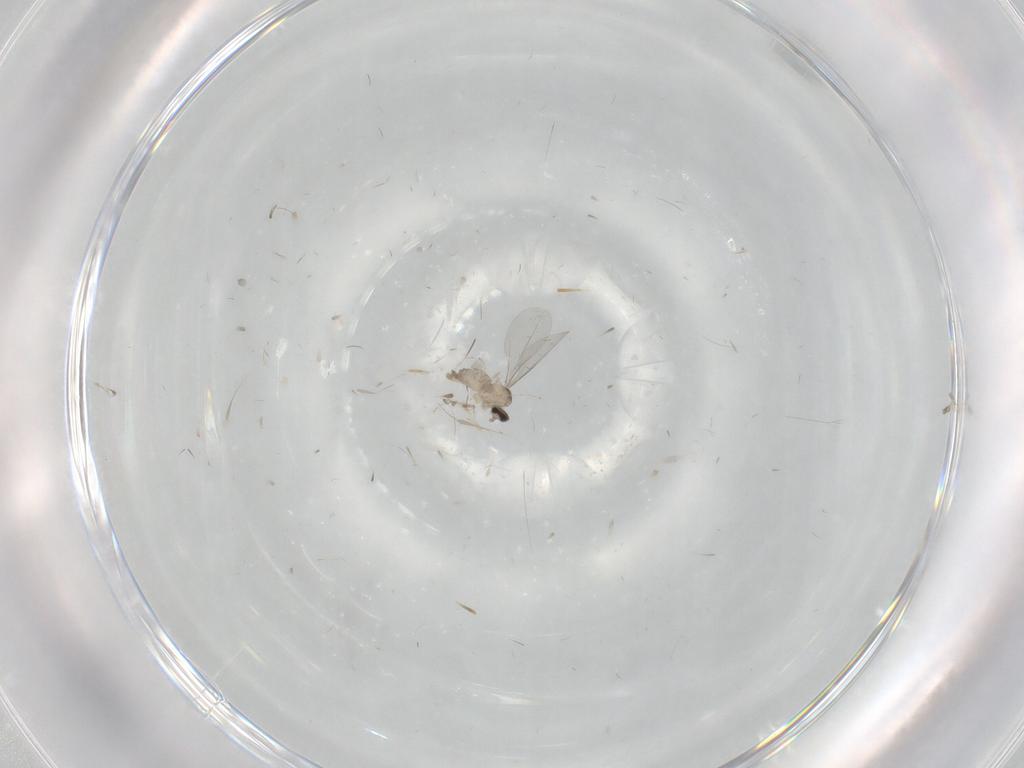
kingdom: Animalia
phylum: Arthropoda
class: Insecta
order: Diptera
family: Cecidomyiidae
